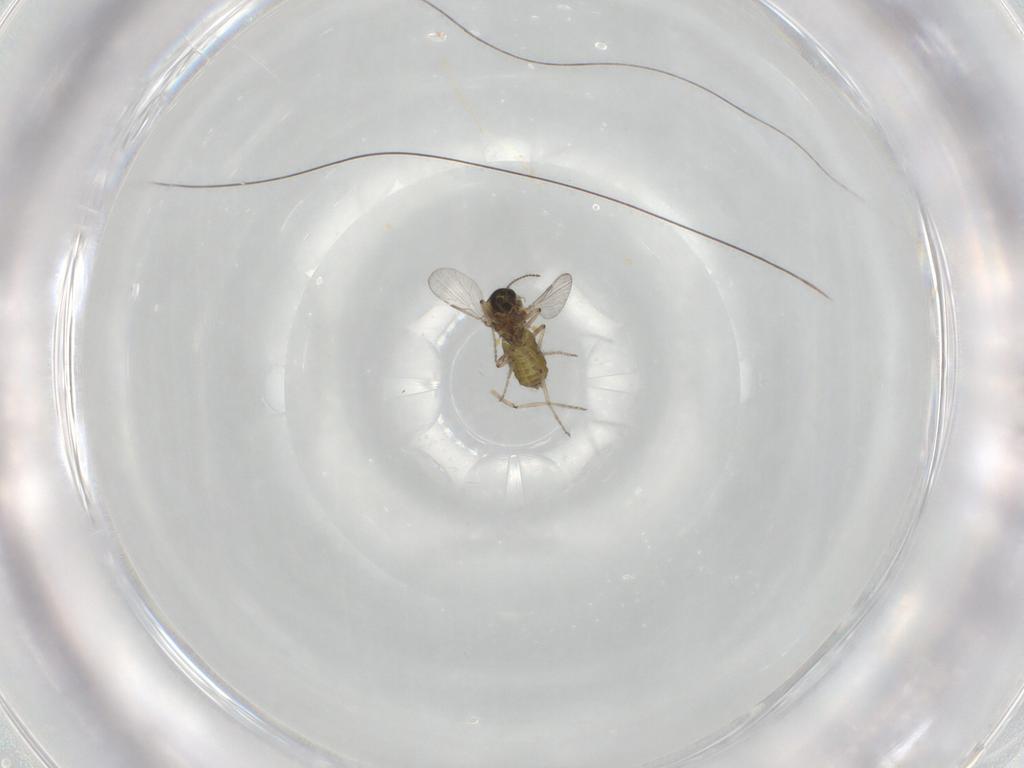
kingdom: Animalia
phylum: Arthropoda
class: Insecta
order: Diptera
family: Ceratopogonidae
